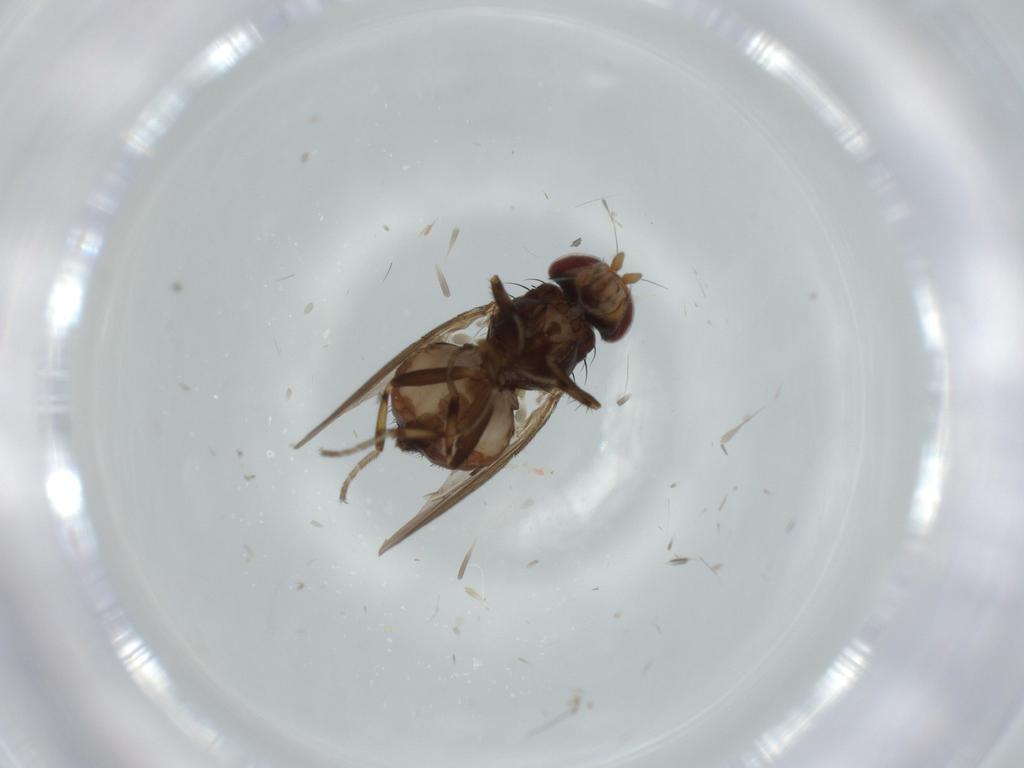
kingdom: Animalia
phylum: Arthropoda
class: Insecta
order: Diptera
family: Heleomyzidae
